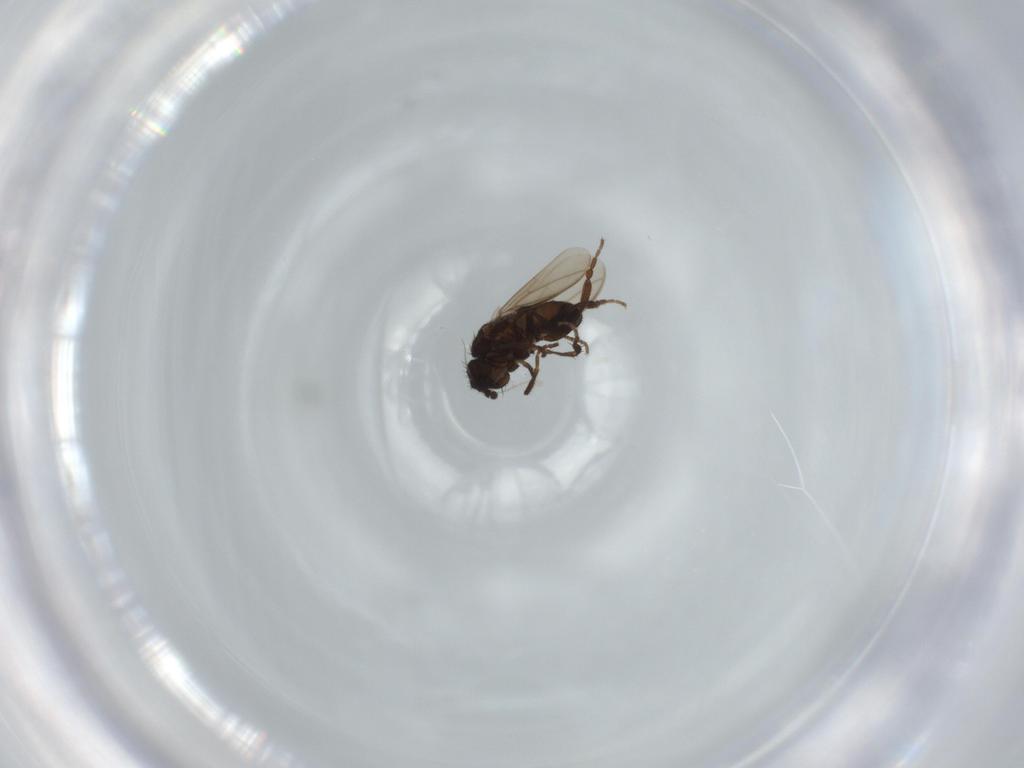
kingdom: Animalia
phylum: Arthropoda
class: Insecta
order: Diptera
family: Sphaeroceridae
